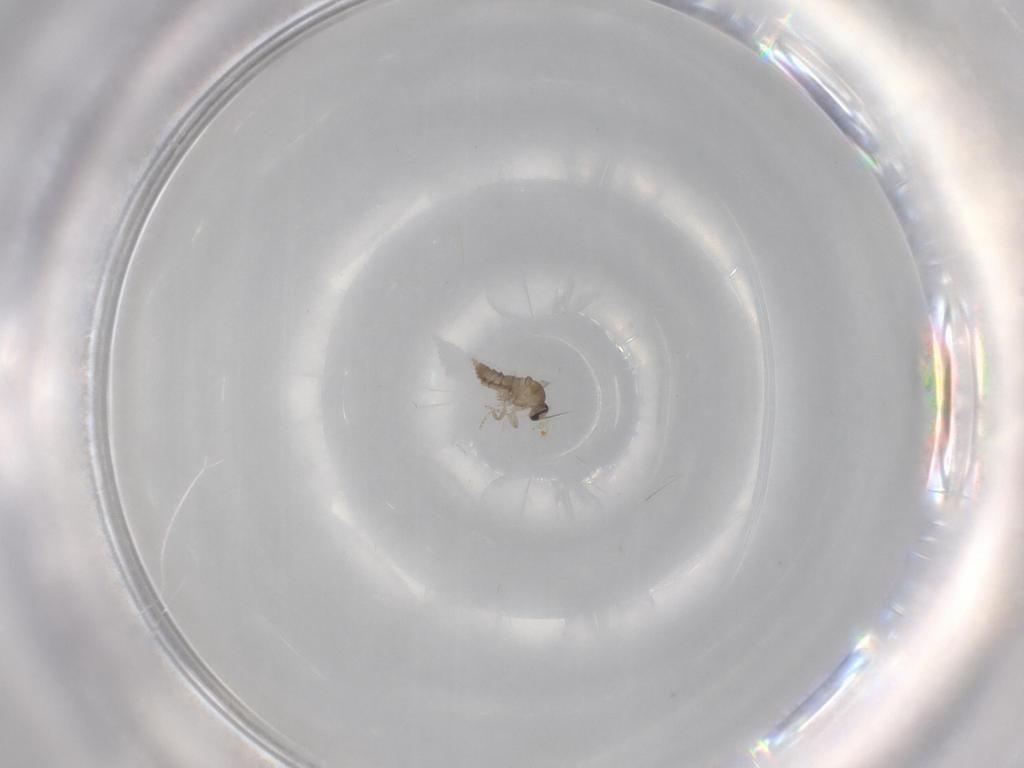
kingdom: Animalia
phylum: Arthropoda
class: Insecta
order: Diptera
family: Cecidomyiidae
